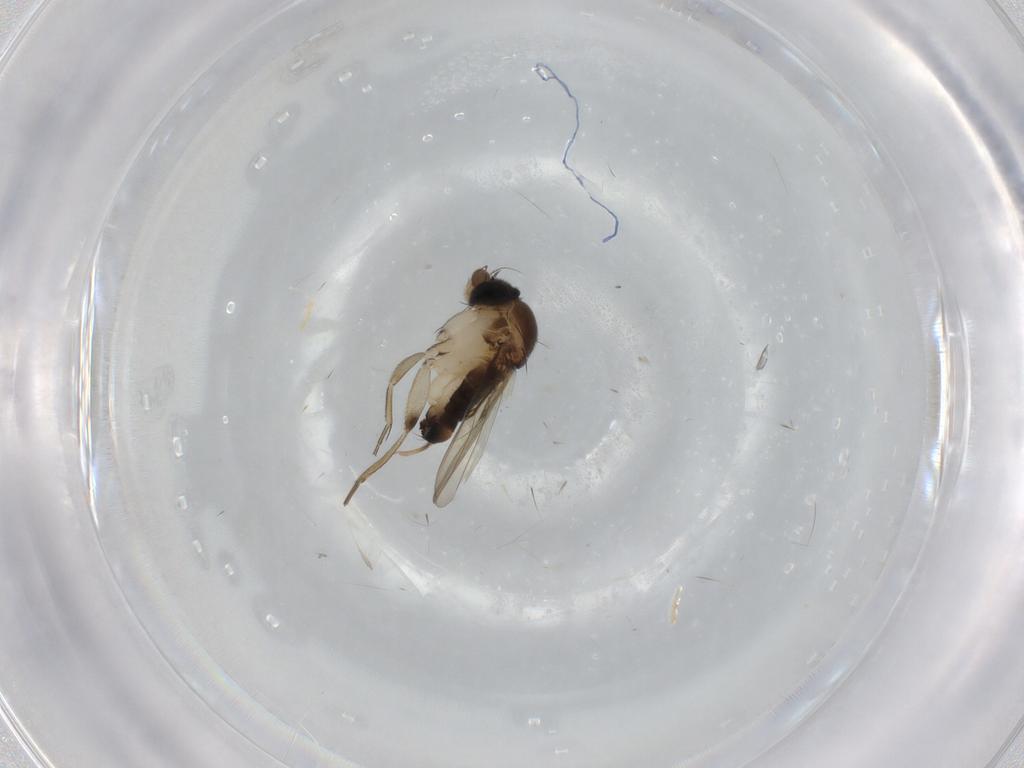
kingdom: Animalia
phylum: Arthropoda
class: Insecta
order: Diptera
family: Phoridae
